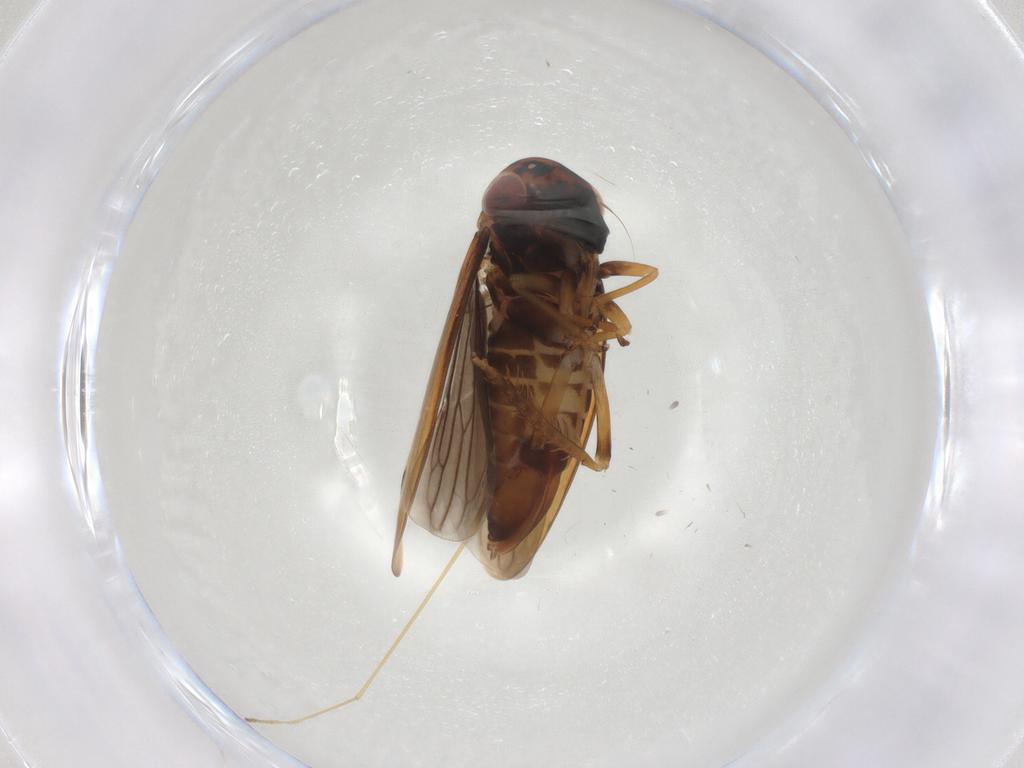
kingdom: Animalia
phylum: Arthropoda
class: Insecta
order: Hemiptera
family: Cicadellidae
